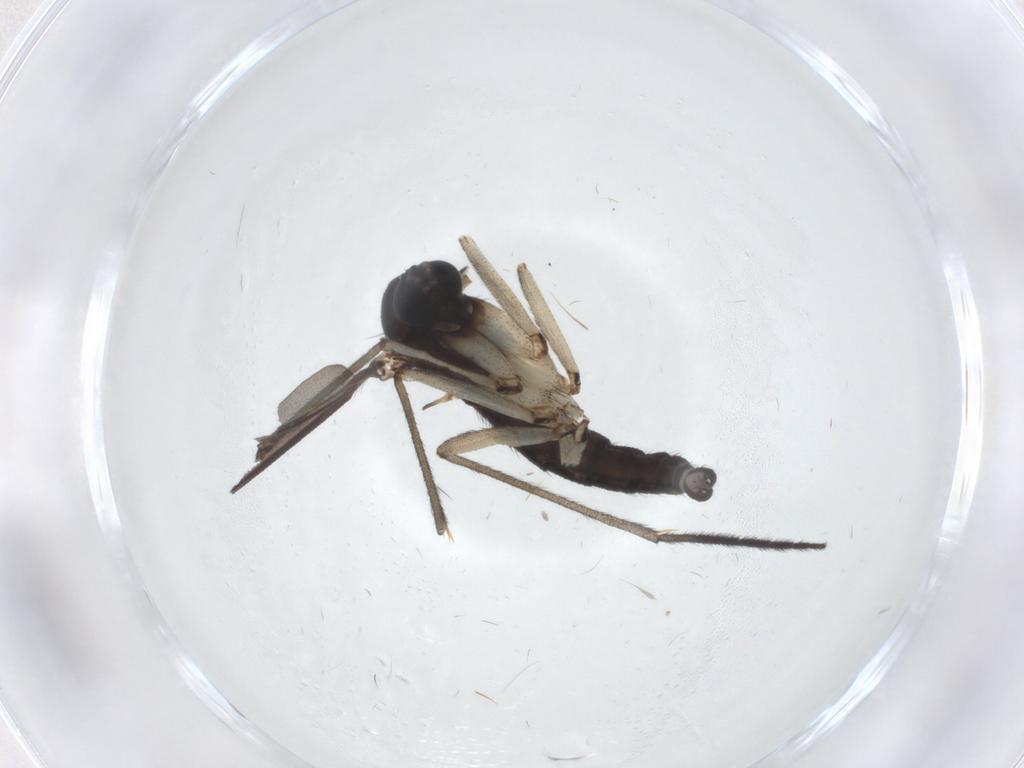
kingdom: Animalia
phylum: Arthropoda
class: Insecta
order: Diptera
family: Chironomidae
